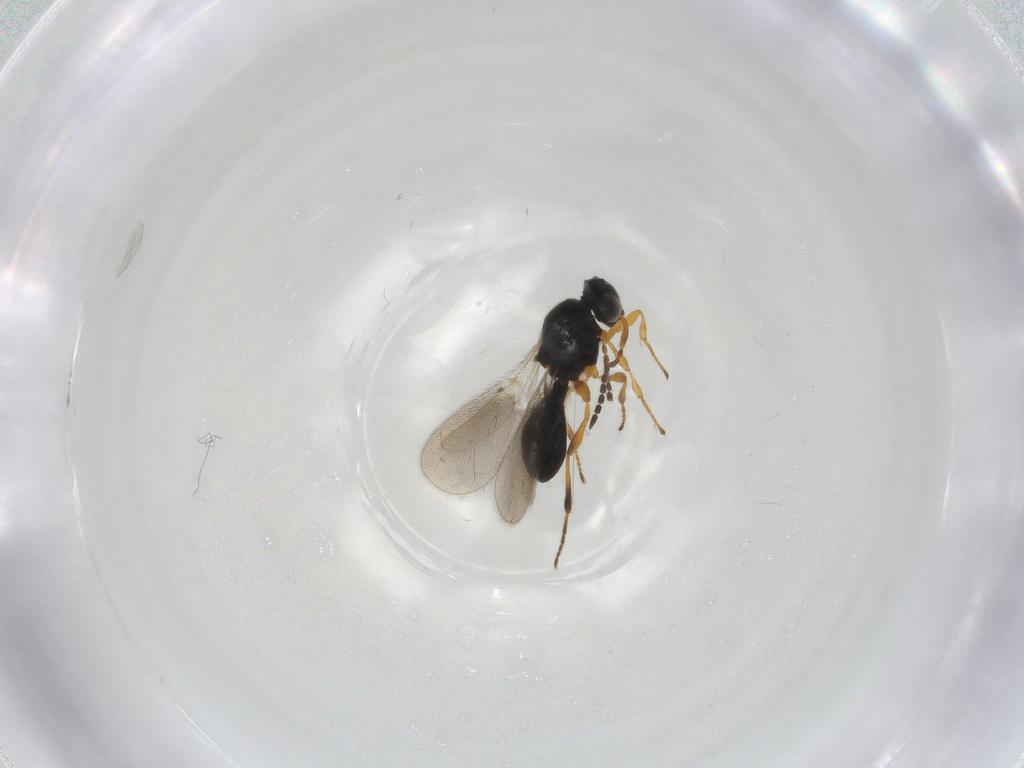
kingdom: Animalia
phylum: Arthropoda
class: Insecta
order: Hymenoptera
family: Platygastridae
